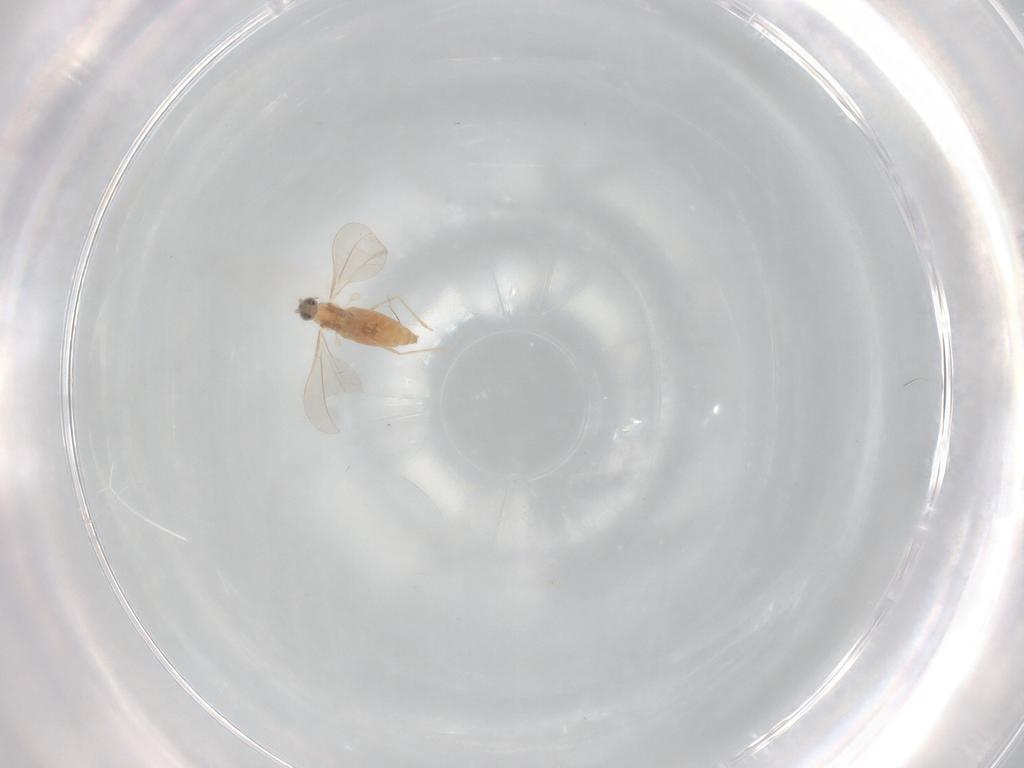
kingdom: Animalia
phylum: Arthropoda
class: Insecta
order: Diptera
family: Cecidomyiidae
